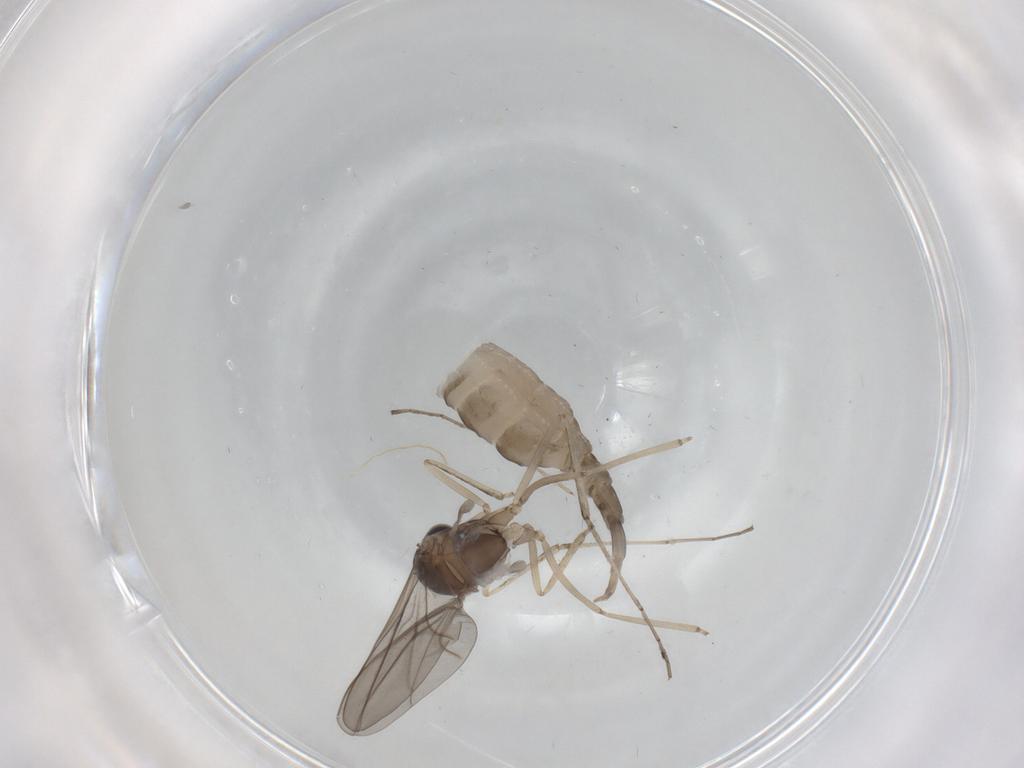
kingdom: Animalia
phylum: Arthropoda
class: Insecta
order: Diptera
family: Cecidomyiidae
